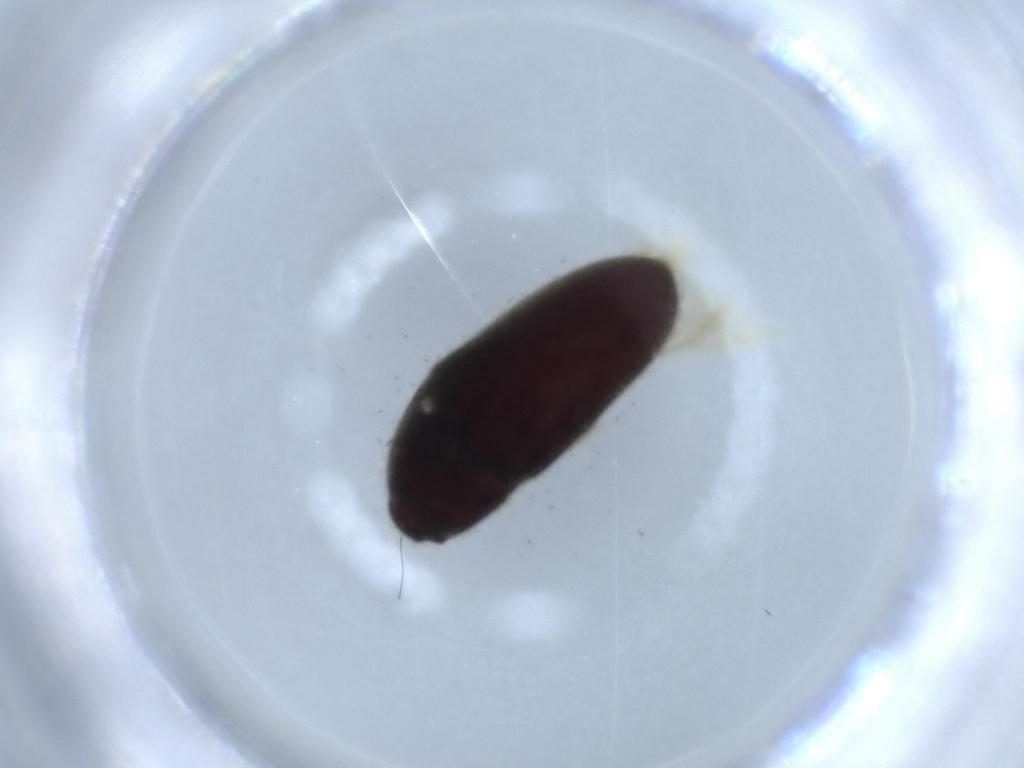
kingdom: Animalia
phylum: Arthropoda
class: Insecta
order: Coleoptera
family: Throscidae
